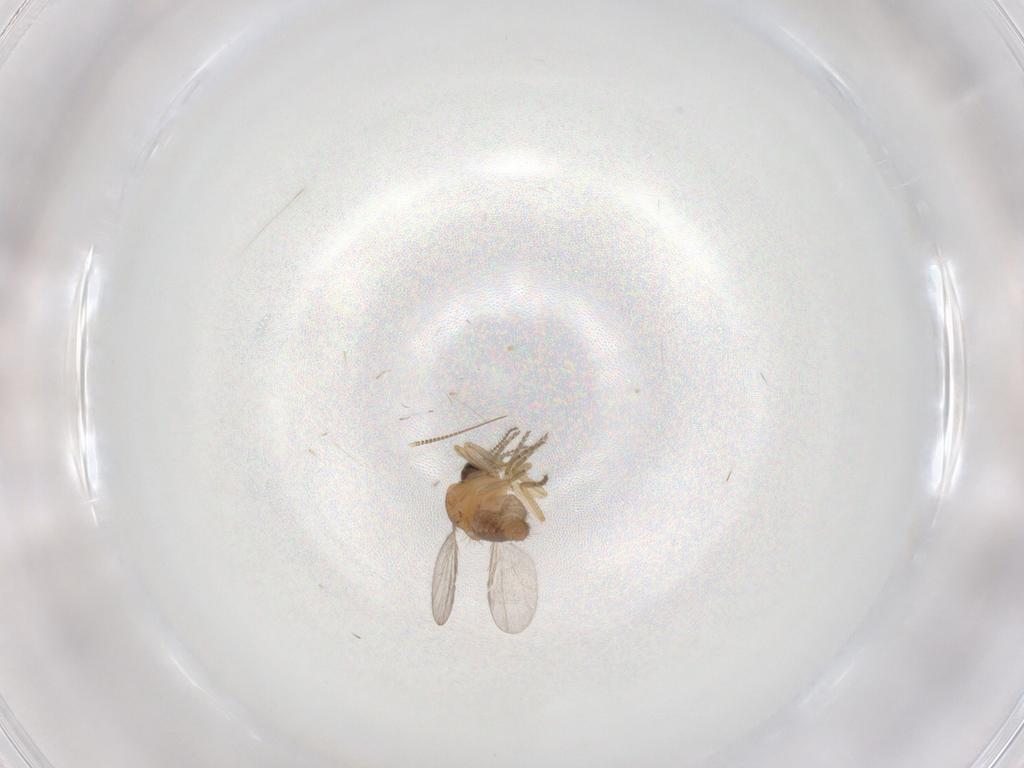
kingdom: Animalia
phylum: Arthropoda
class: Insecta
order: Diptera
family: Ceratopogonidae
